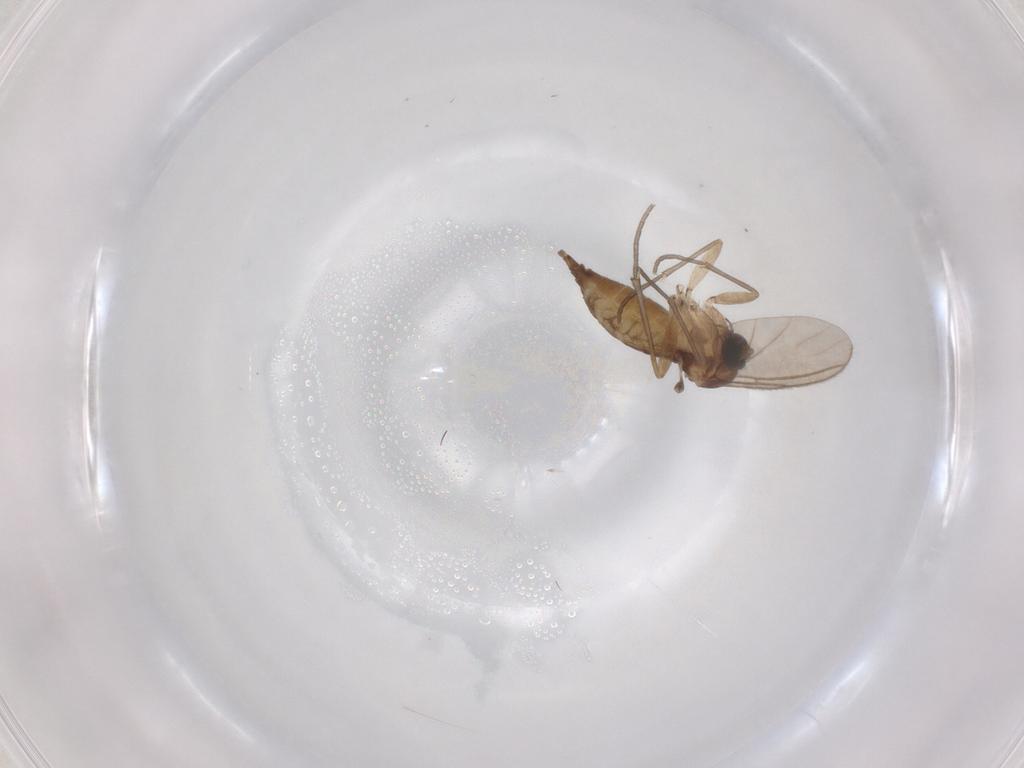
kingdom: Animalia
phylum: Arthropoda
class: Insecta
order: Diptera
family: Sciaridae
